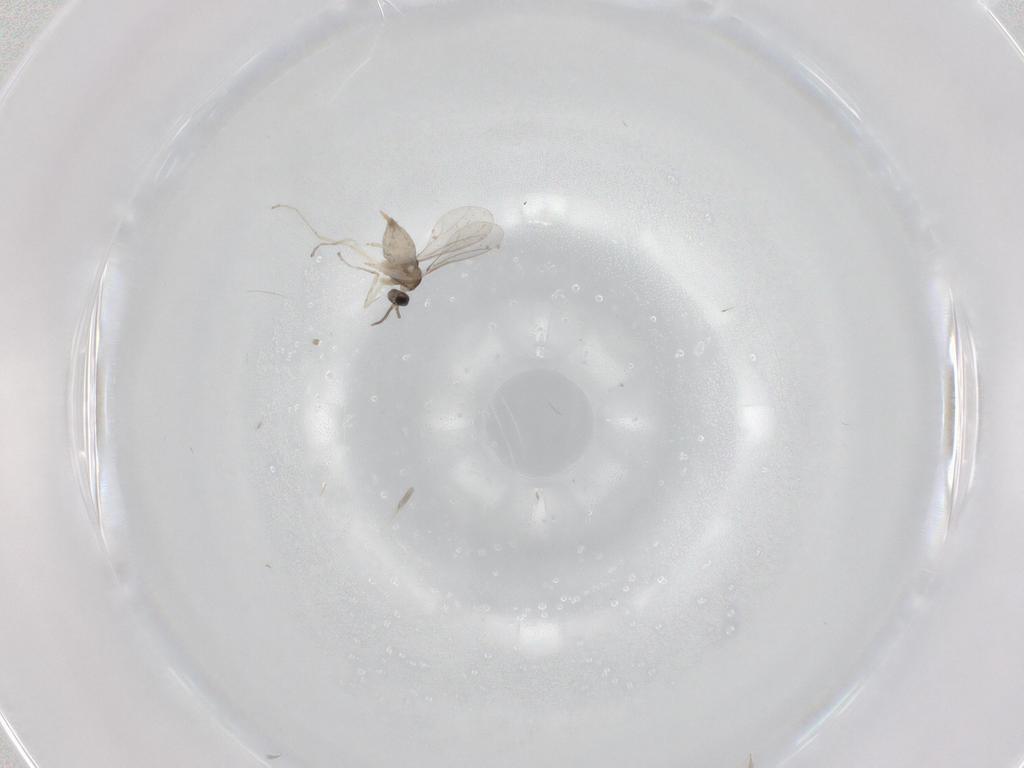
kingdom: Animalia
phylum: Arthropoda
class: Insecta
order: Diptera
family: Cecidomyiidae
